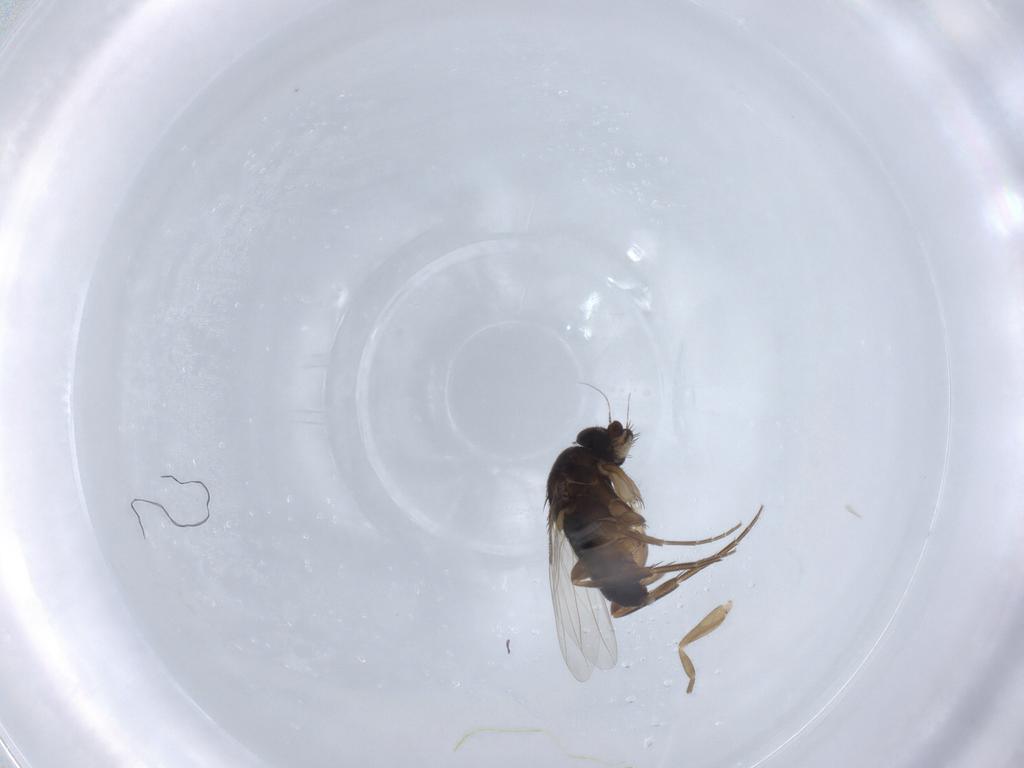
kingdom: Animalia
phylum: Arthropoda
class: Insecta
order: Diptera
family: Phoridae
